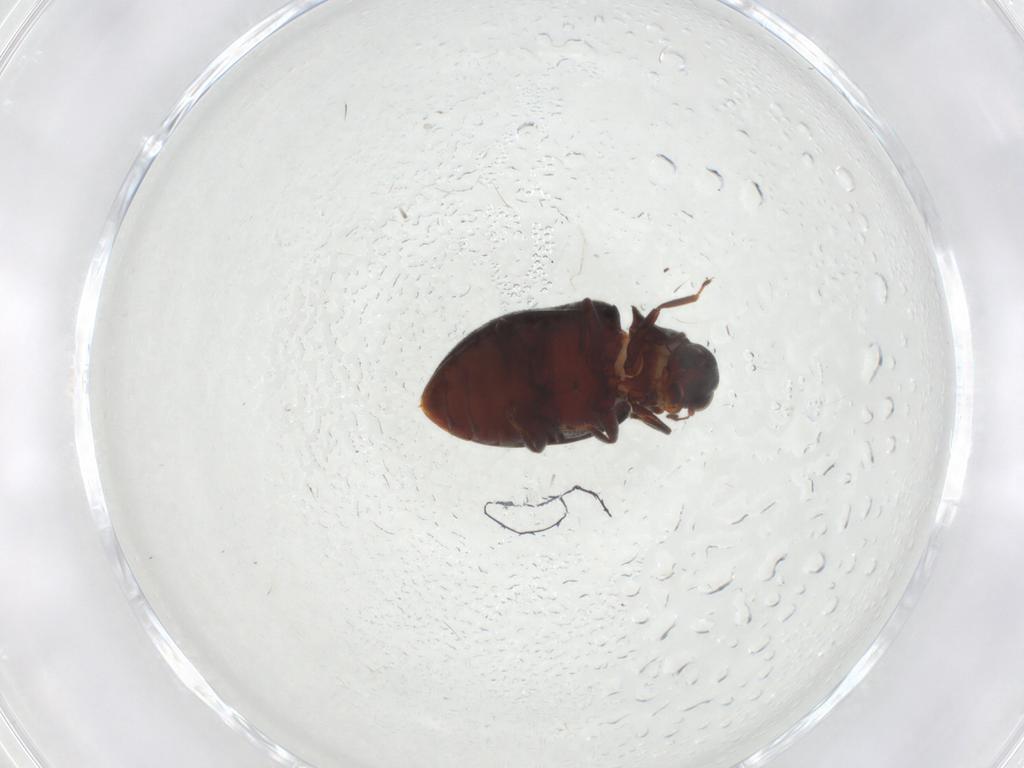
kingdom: Animalia
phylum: Arthropoda
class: Insecta
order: Coleoptera
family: Limnichidae
